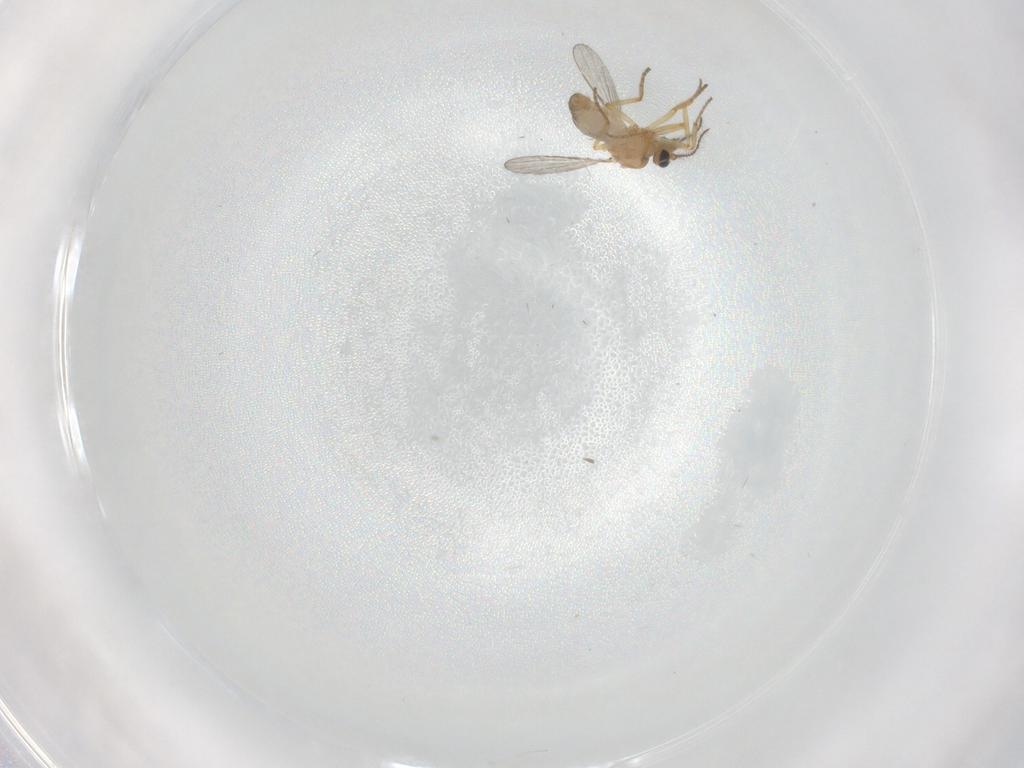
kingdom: Animalia
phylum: Arthropoda
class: Insecta
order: Diptera
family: Ceratopogonidae
